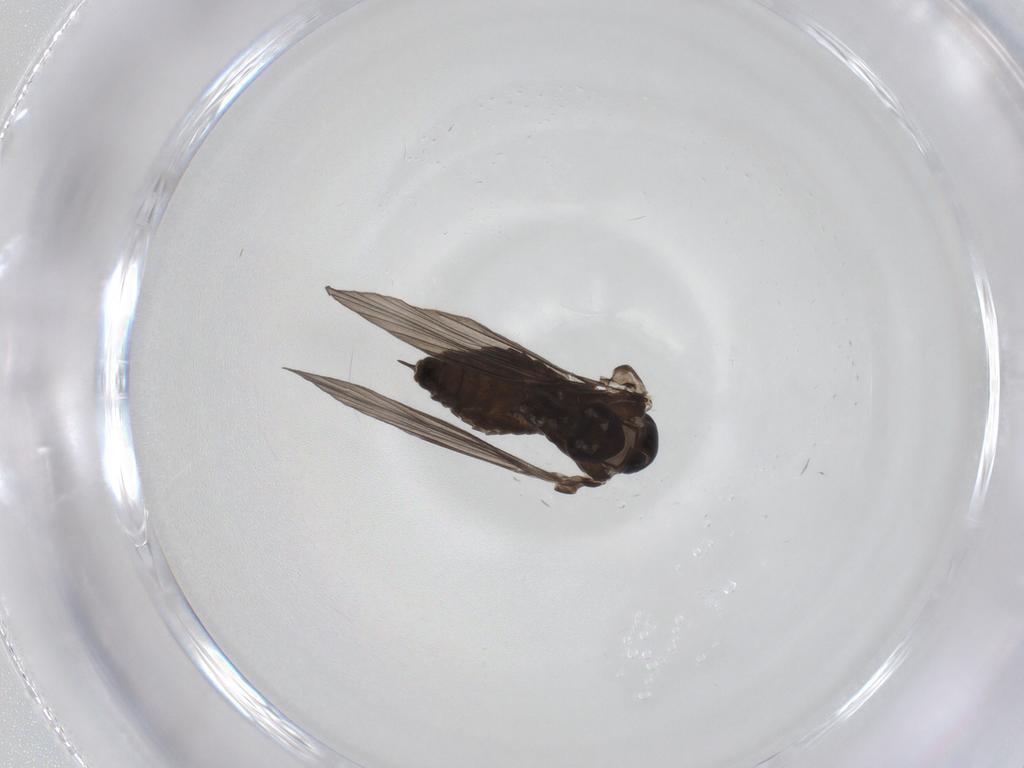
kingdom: Animalia
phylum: Arthropoda
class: Insecta
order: Diptera
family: Psychodidae
